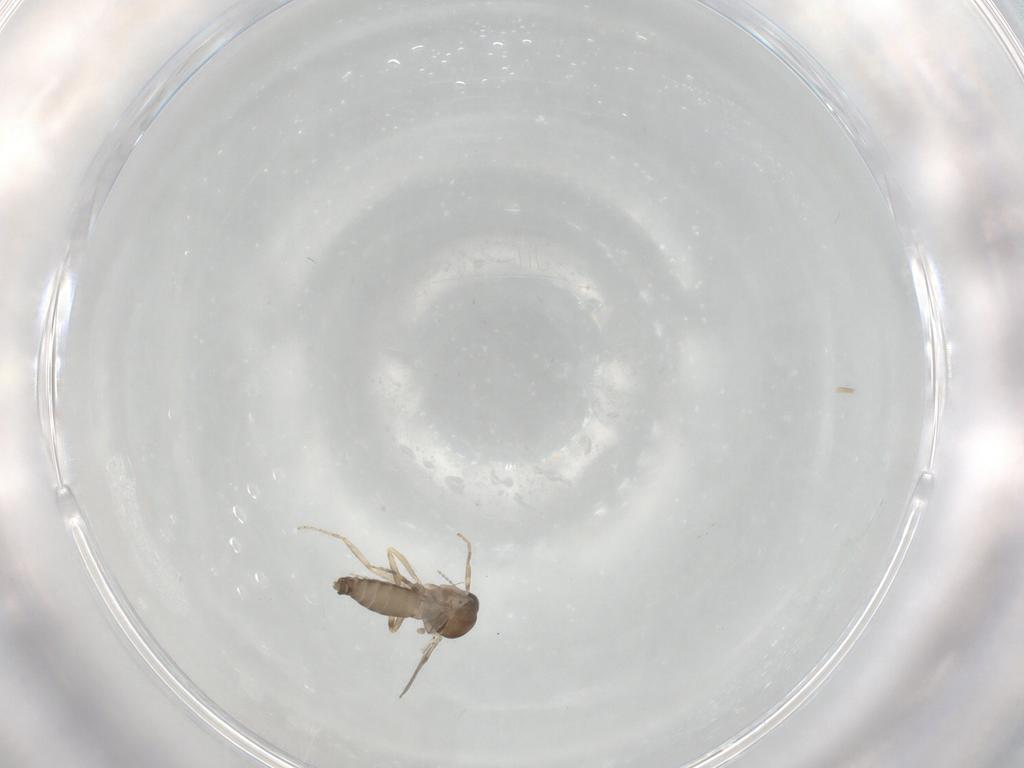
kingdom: Animalia
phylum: Arthropoda
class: Insecta
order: Diptera
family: Ceratopogonidae
